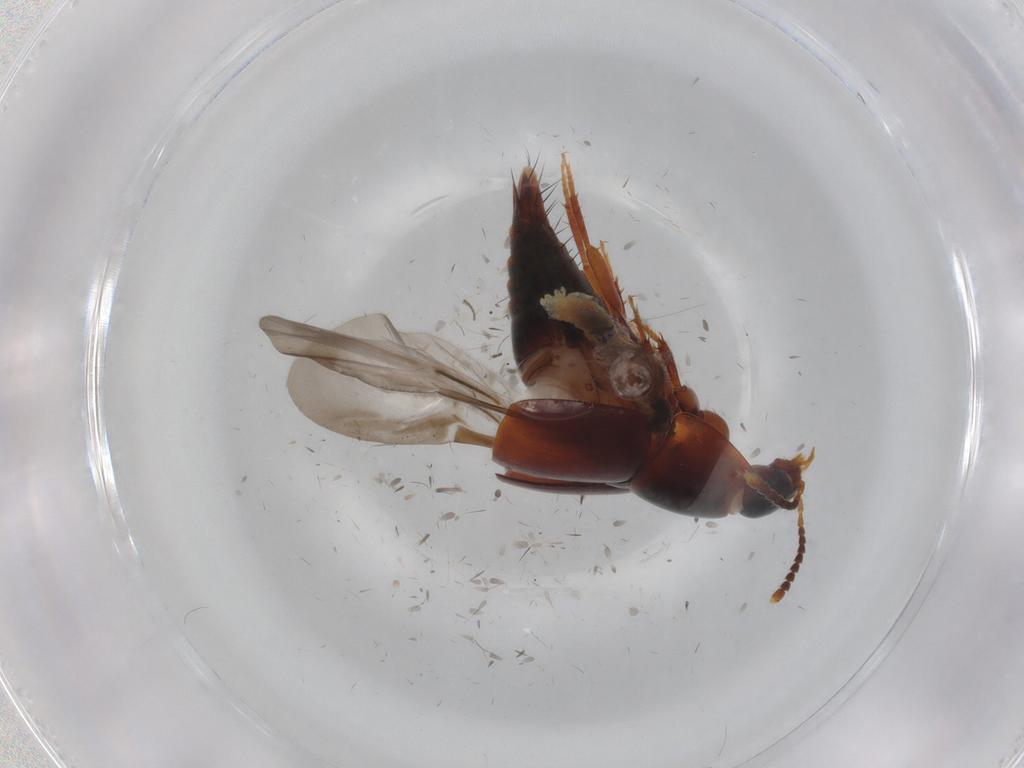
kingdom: Animalia
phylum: Arthropoda
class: Insecta
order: Coleoptera
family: Staphylinidae
